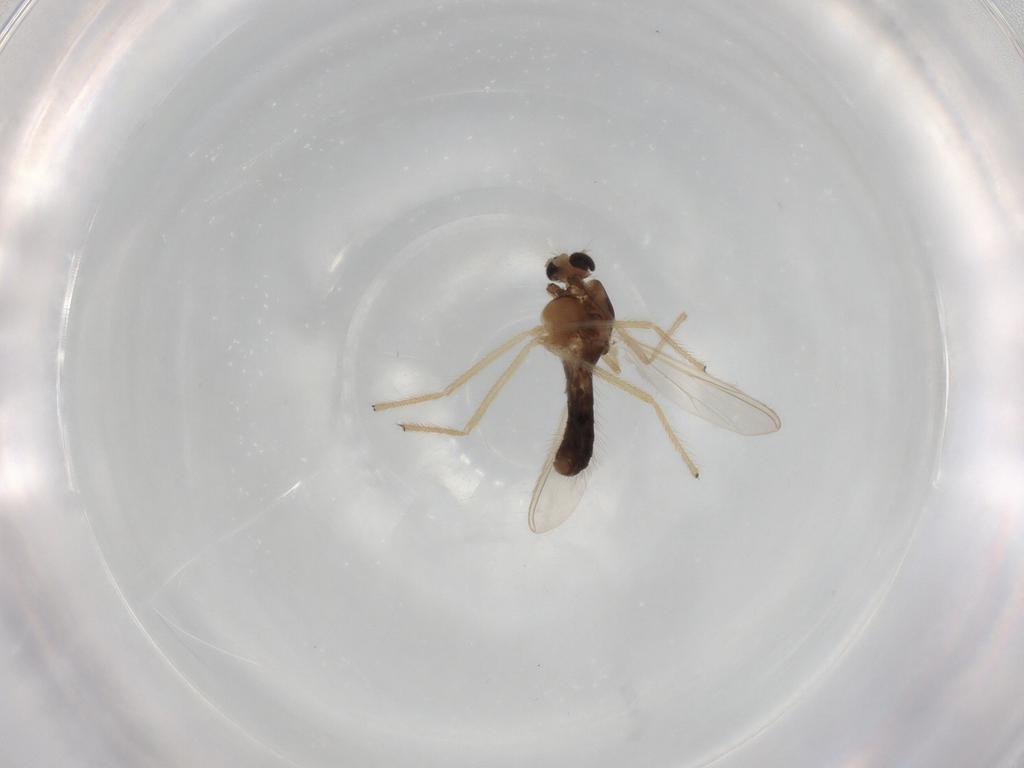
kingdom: Animalia
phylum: Arthropoda
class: Insecta
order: Diptera
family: Chironomidae
